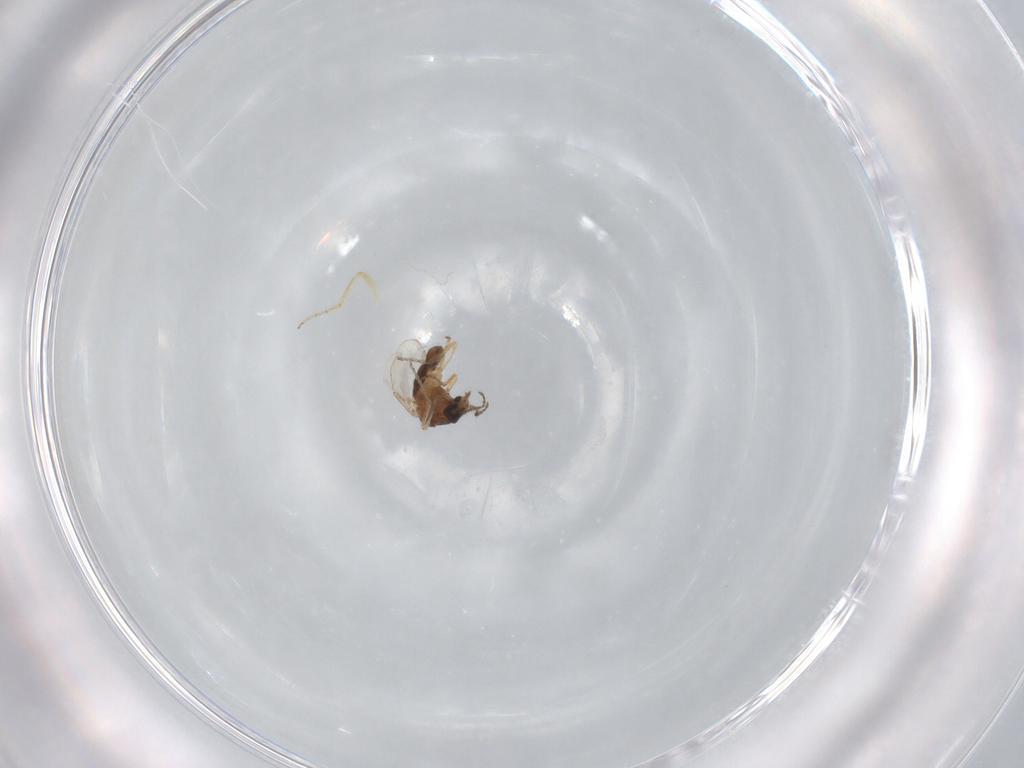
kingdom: Animalia
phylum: Arthropoda
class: Insecta
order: Diptera
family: Ceratopogonidae
